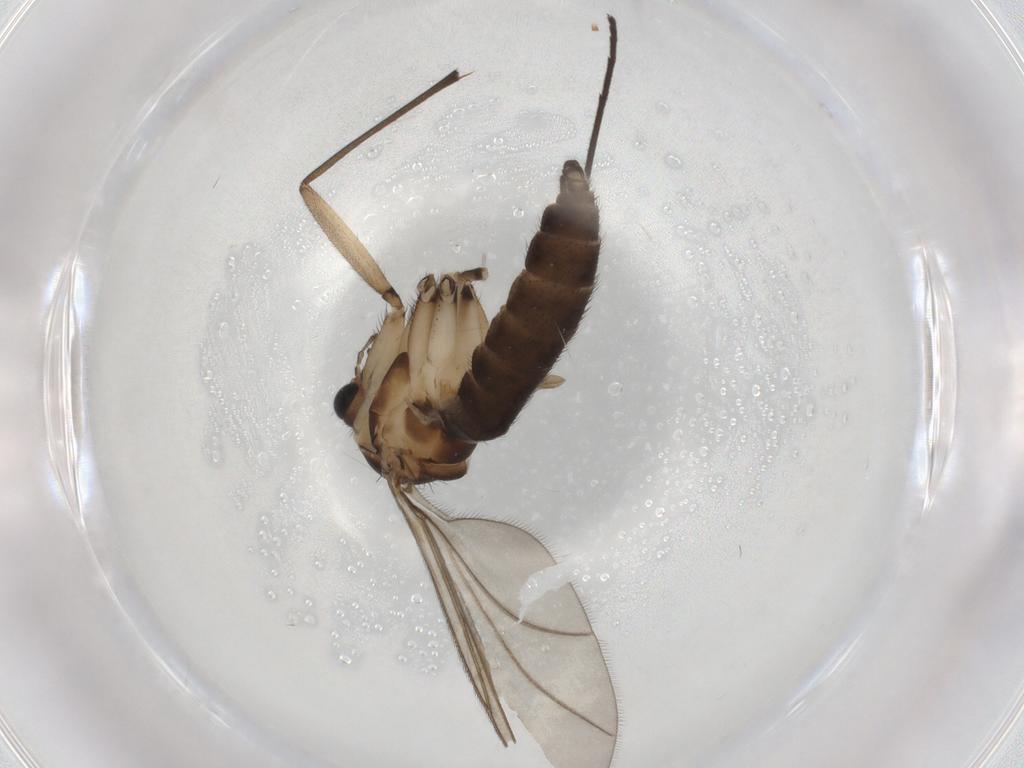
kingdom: Animalia
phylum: Arthropoda
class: Insecta
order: Diptera
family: Sciaridae
